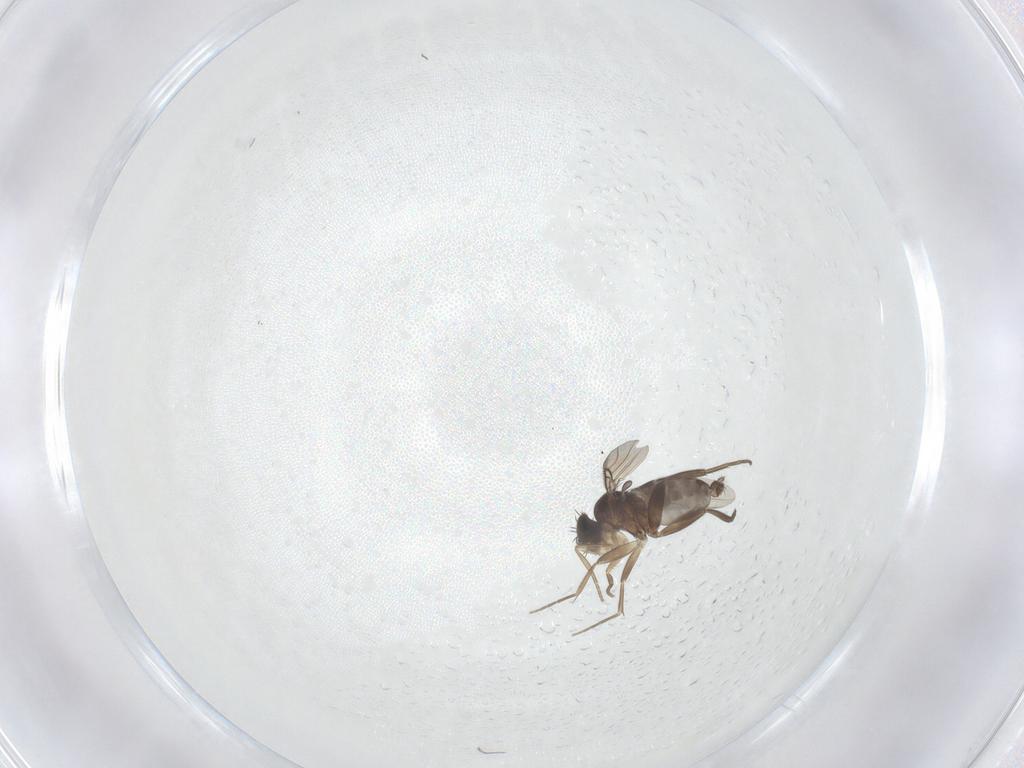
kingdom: Animalia
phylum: Arthropoda
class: Insecta
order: Diptera
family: Phoridae
